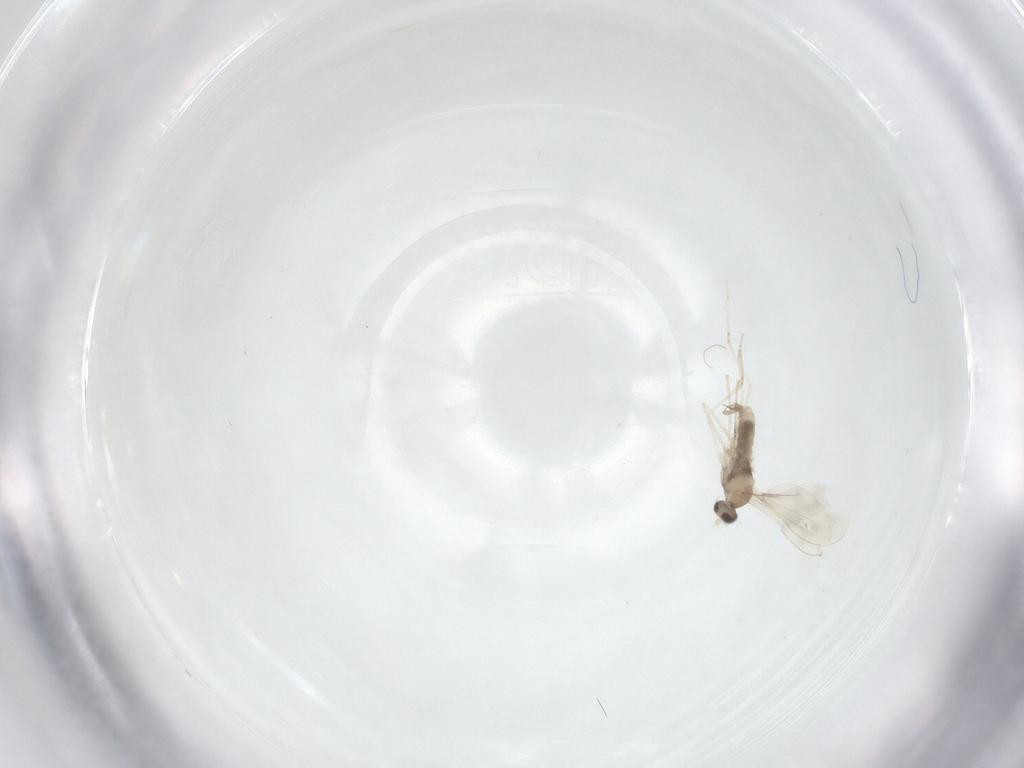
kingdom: Animalia
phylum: Arthropoda
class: Insecta
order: Diptera
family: Cecidomyiidae
